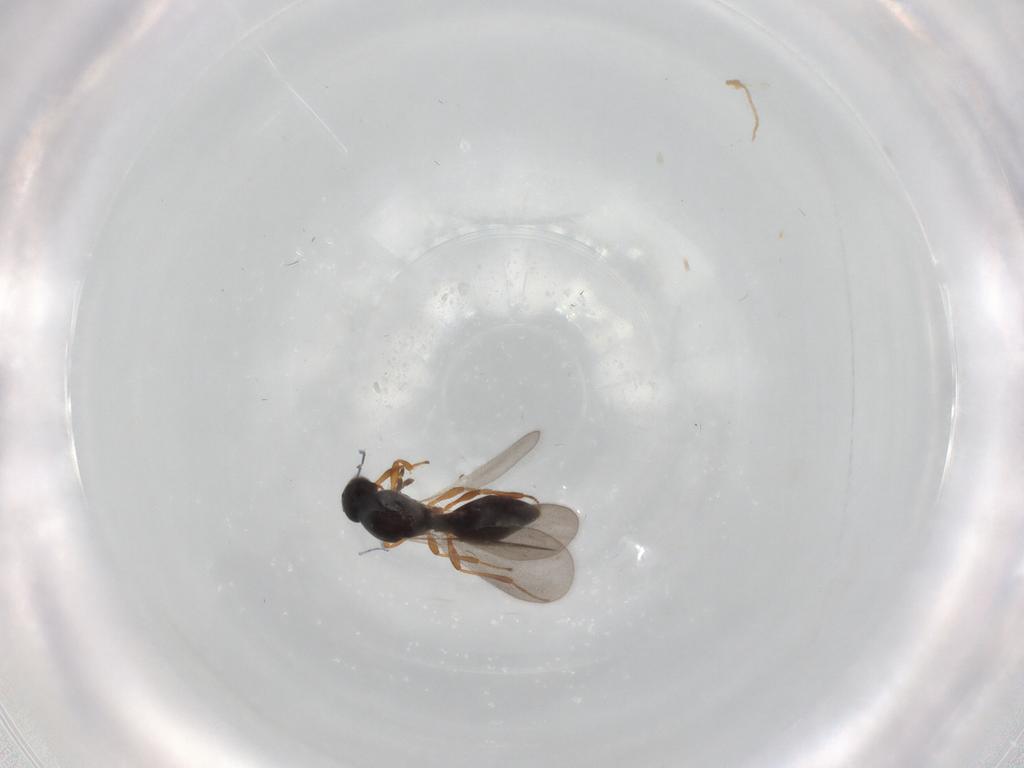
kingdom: Animalia
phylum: Arthropoda
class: Insecta
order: Hymenoptera
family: Platygastridae
